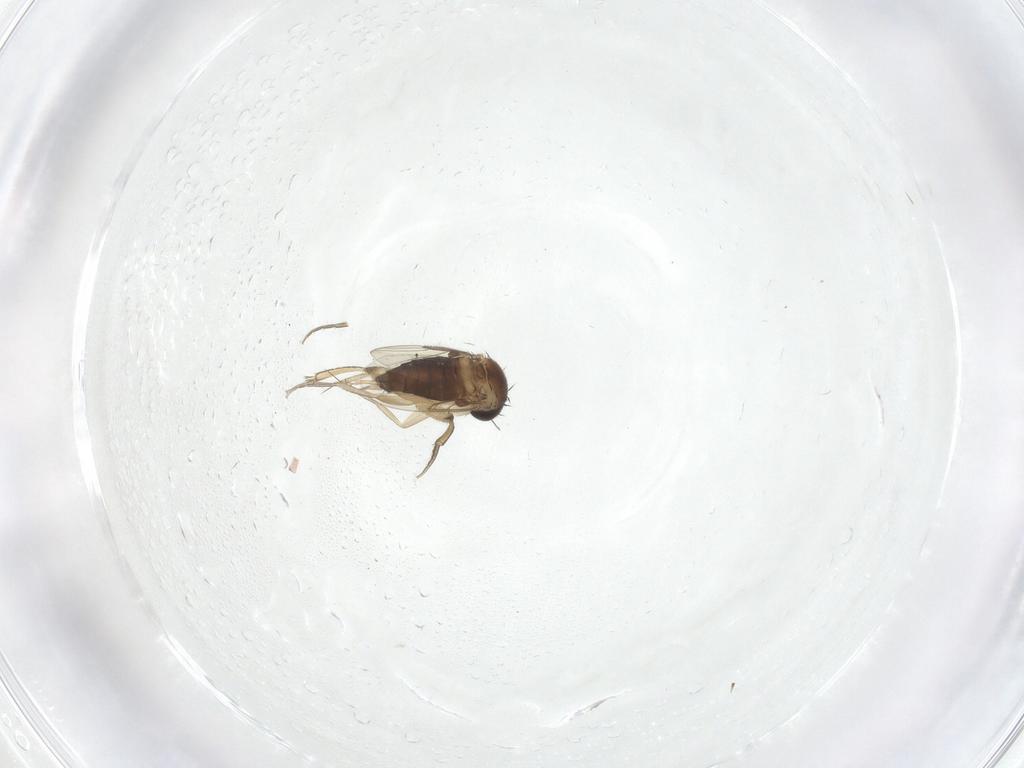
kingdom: Animalia
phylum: Arthropoda
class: Insecta
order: Diptera
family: Phoridae
